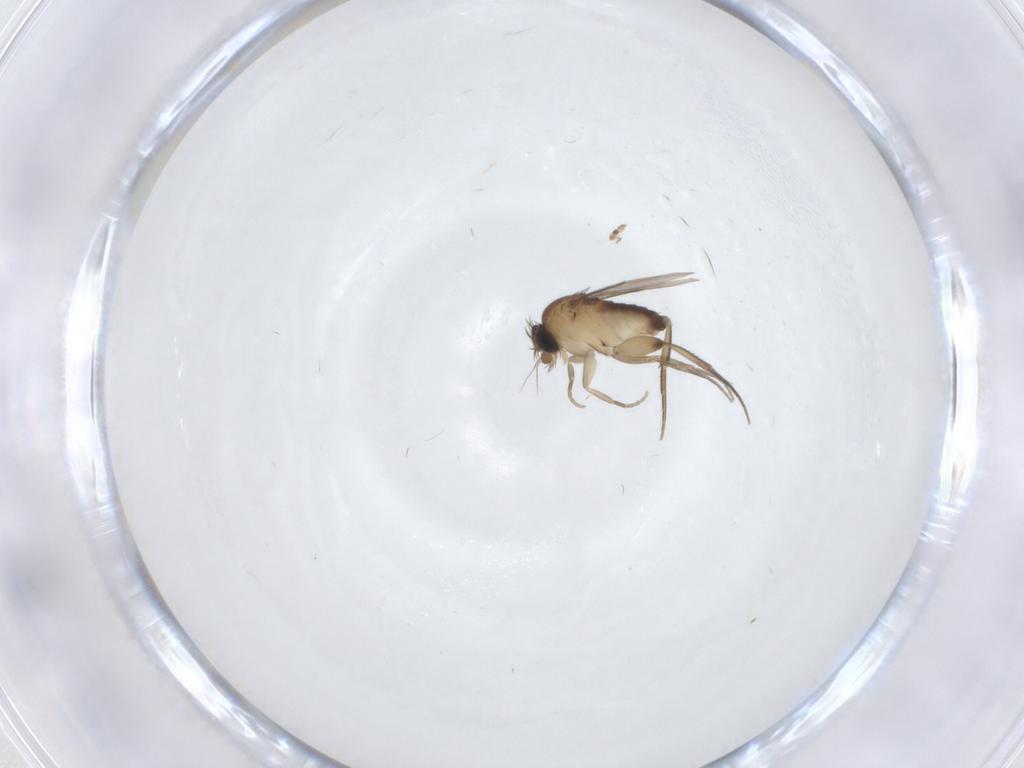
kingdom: Animalia
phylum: Arthropoda
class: Insecta
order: Diptera
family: Phoridae
